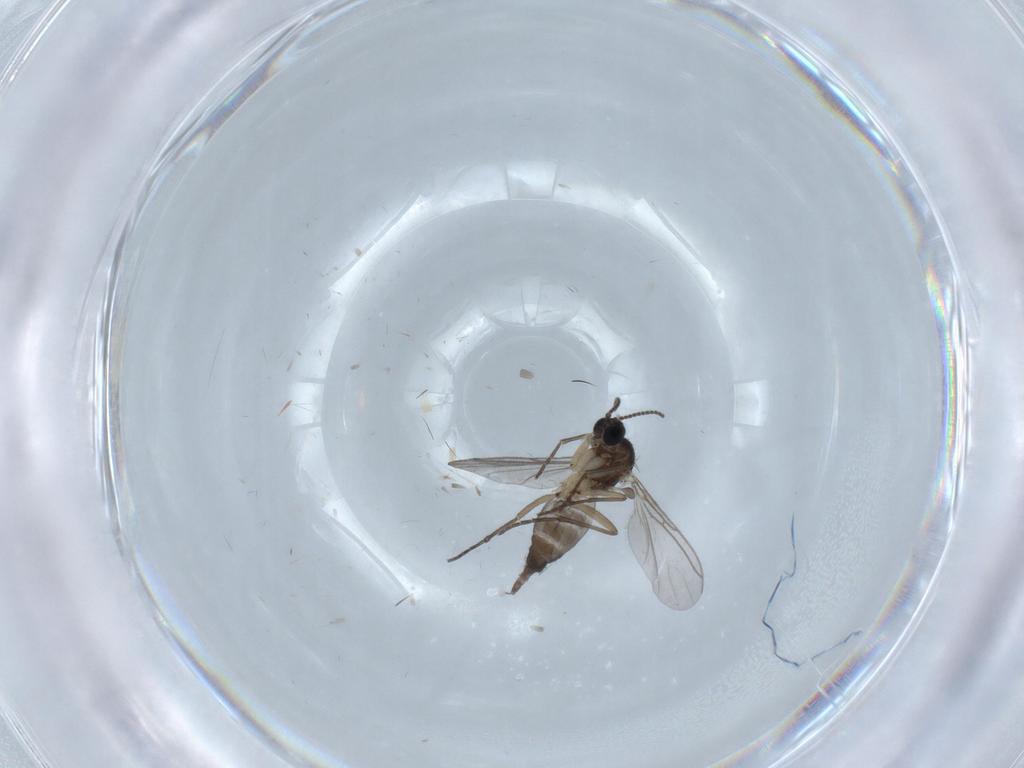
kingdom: Animalia
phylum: Arthropoda
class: Insecta
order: Diptera
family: Sciaridae
